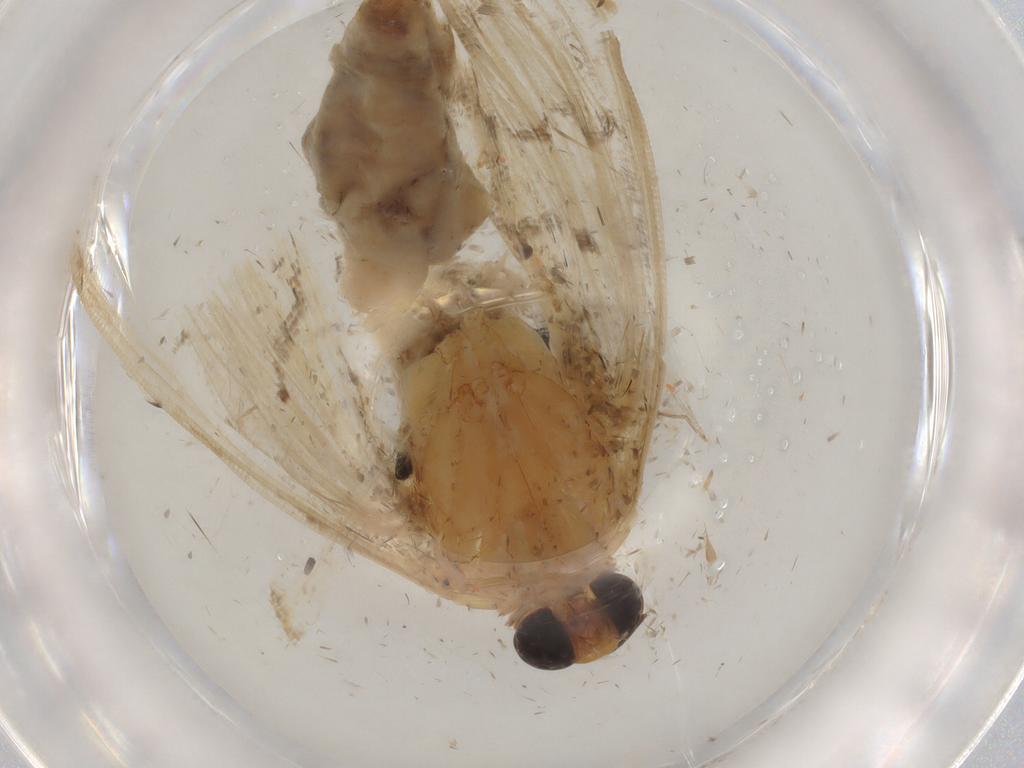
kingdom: Animalia
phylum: Arthropoda
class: Insecta
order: Lepidoptera
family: Crambidae
